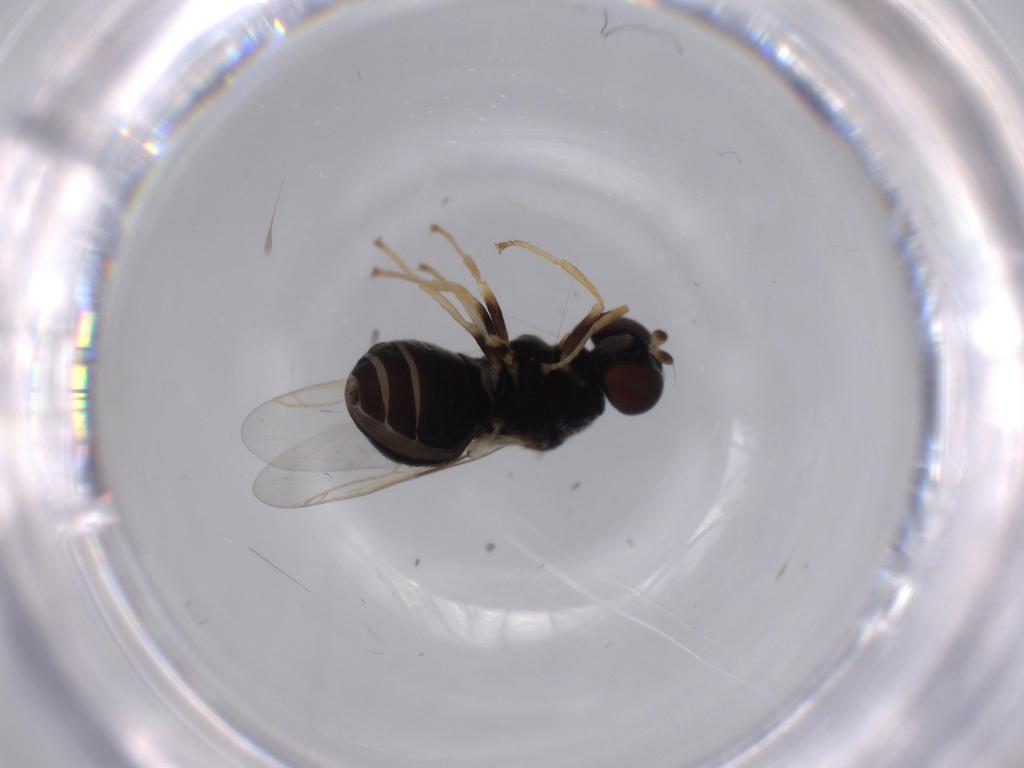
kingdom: Animalia
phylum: Arthropoda
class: Insecta
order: Diptera
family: Stratiomyidae
